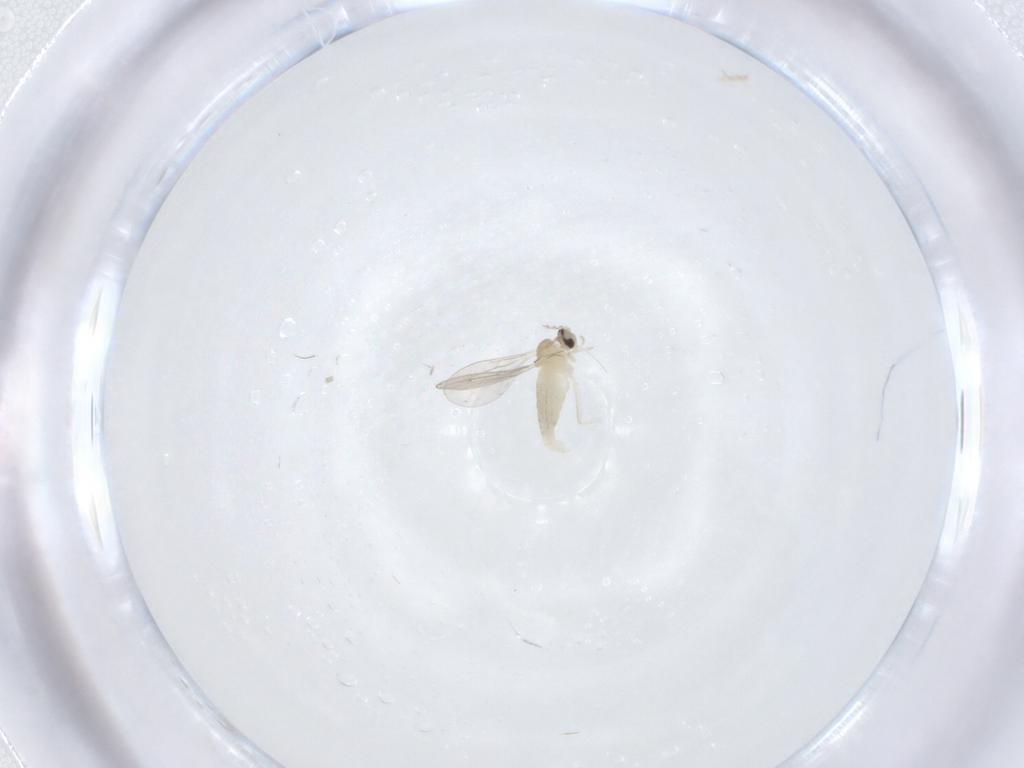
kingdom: Animalia
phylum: Arthropoda
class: Insecta
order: Diptera
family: Cecidomyiidae
